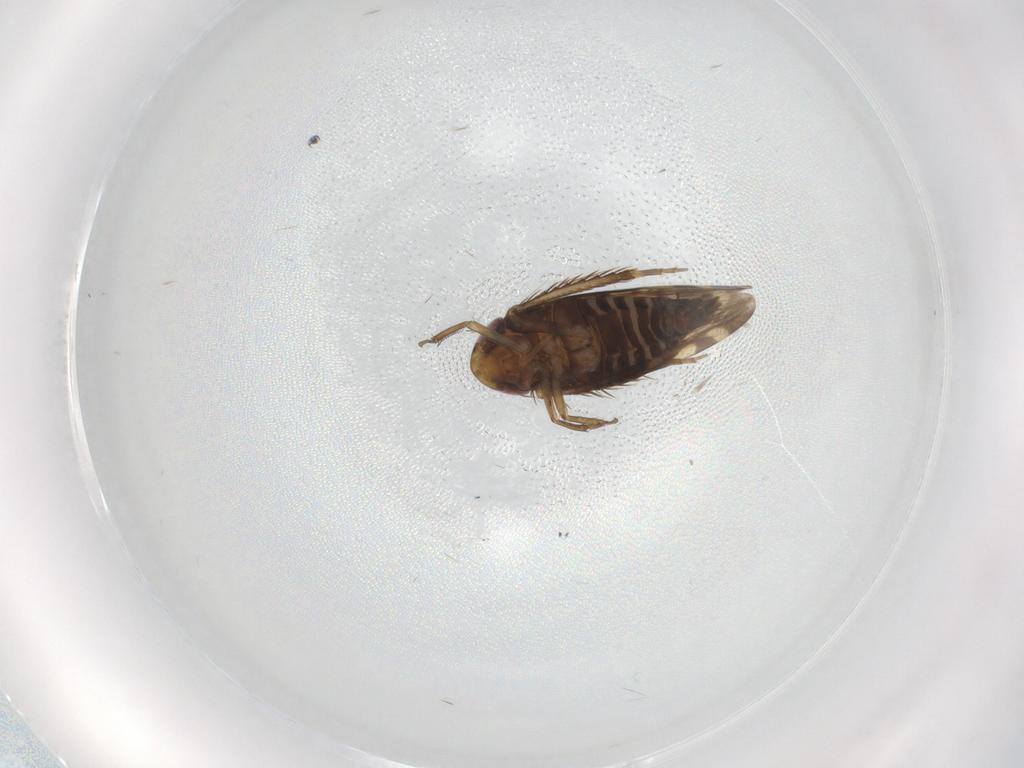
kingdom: Animalia
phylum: Arthropoda
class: Insecta
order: Hemiptera
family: Cicadellidae
